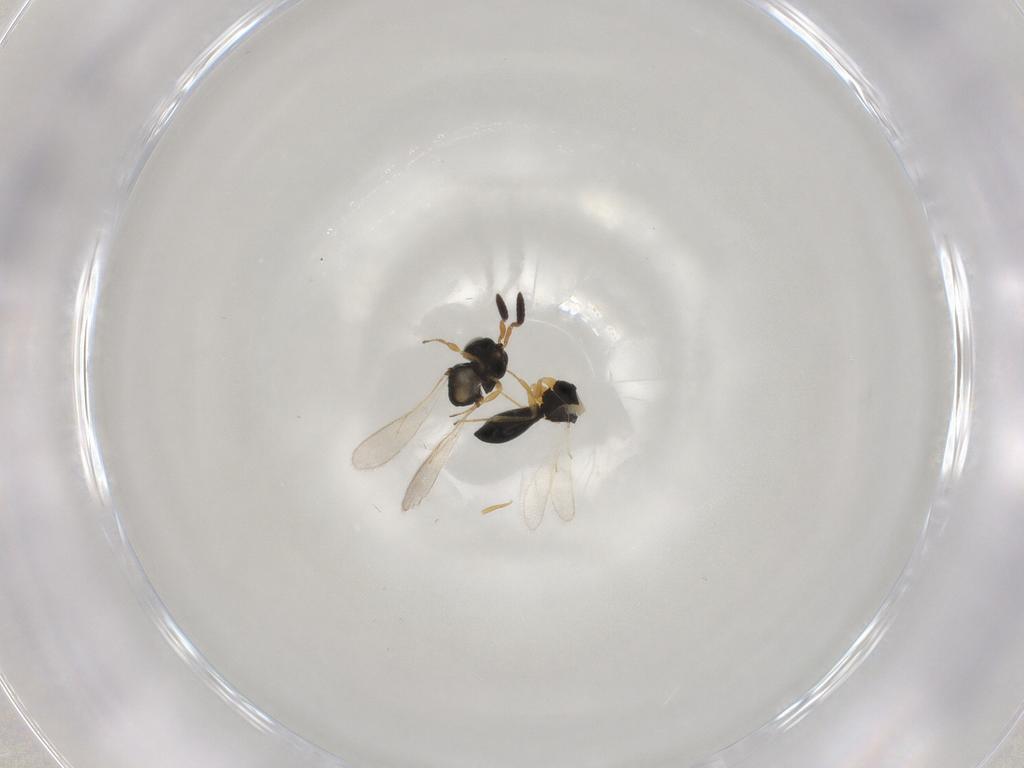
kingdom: Animalia
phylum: Arthropoda
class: Insecta
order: Hymenoptera
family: Scelionidae
